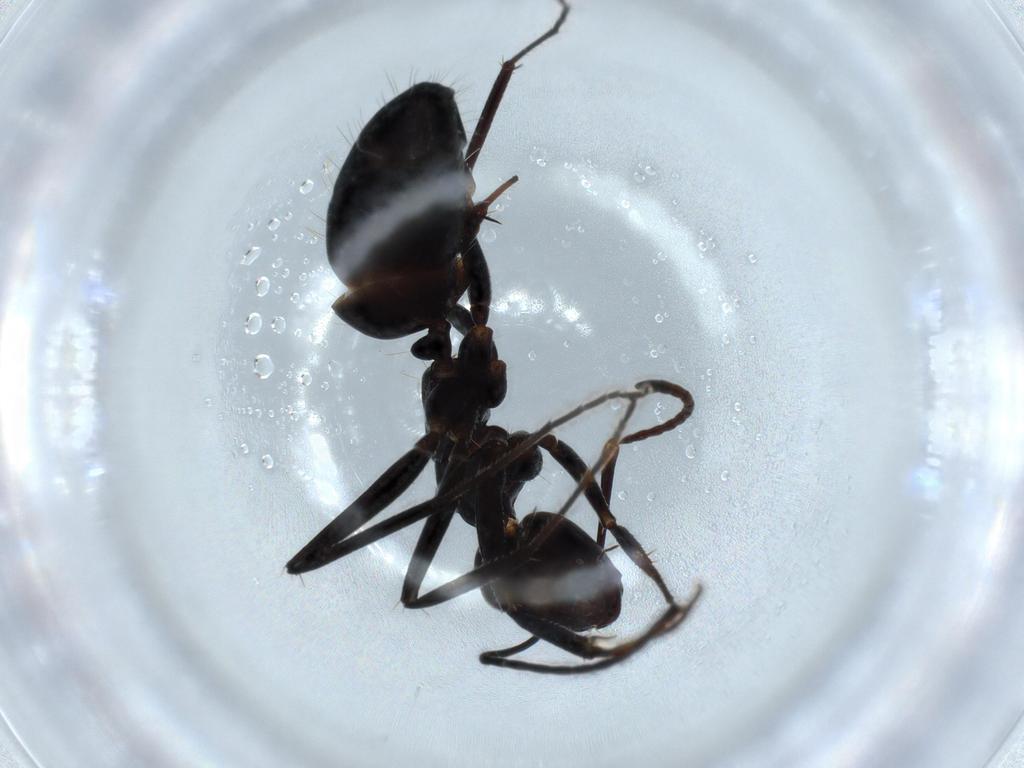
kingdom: Animalia
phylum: Arthropoda
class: Insecta
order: Hymenoptera
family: Formicidae
